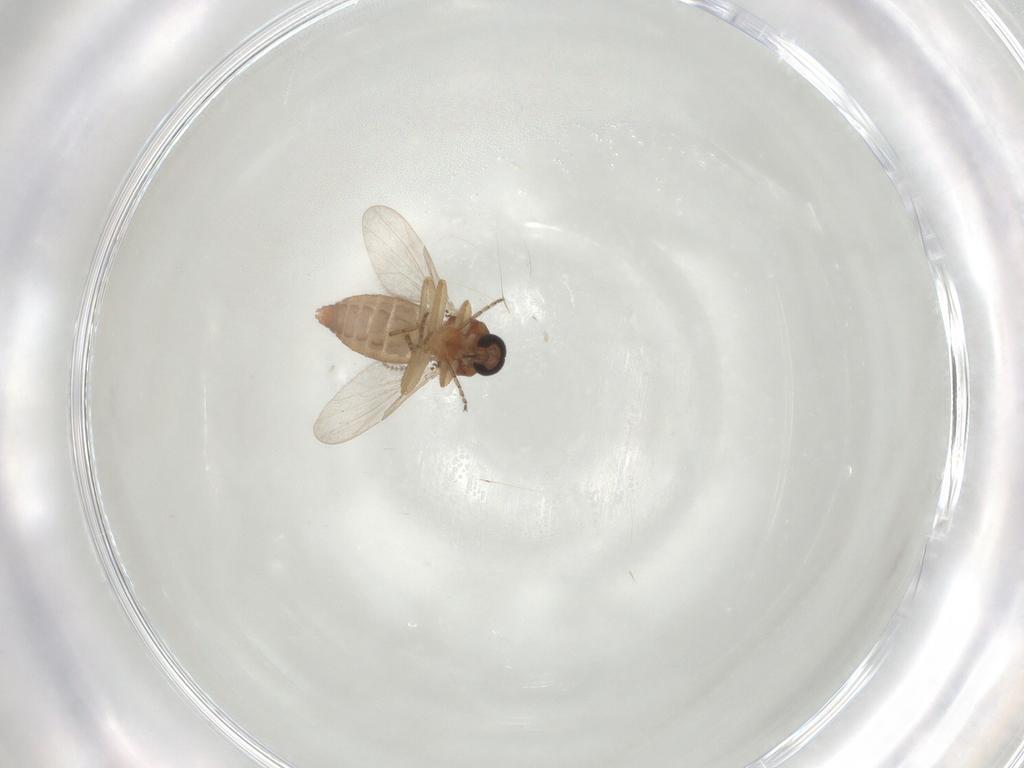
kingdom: Animalia
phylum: Arthropoda
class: Insecta
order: Diptera
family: Ceratopogonidae
